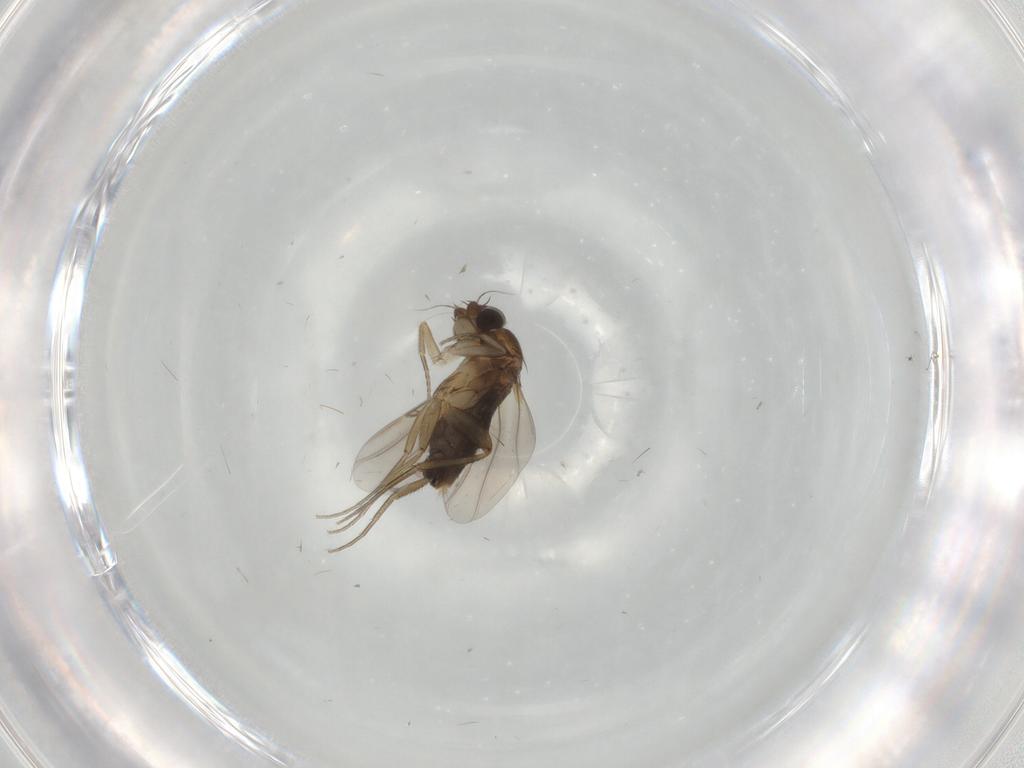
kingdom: Animalia
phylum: Arthropoda
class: Insecta
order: Diptera
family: Phoridae
